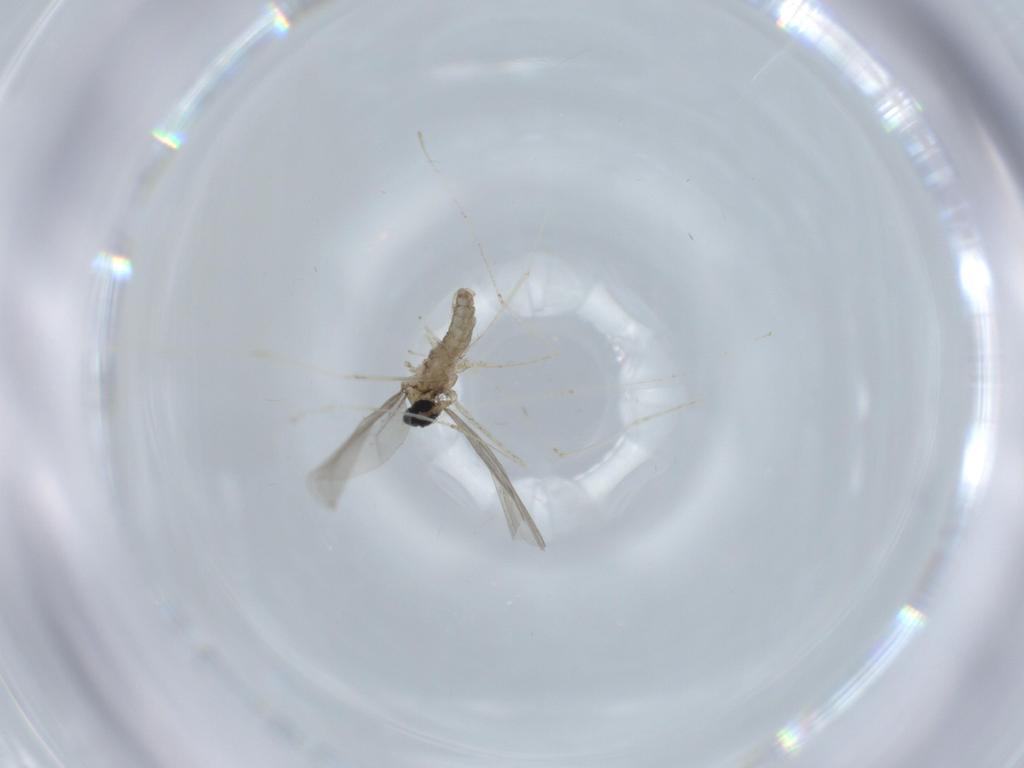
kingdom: Animalia
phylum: Arthropoda
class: Insecta
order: Diptera
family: Cecidomyiidae
